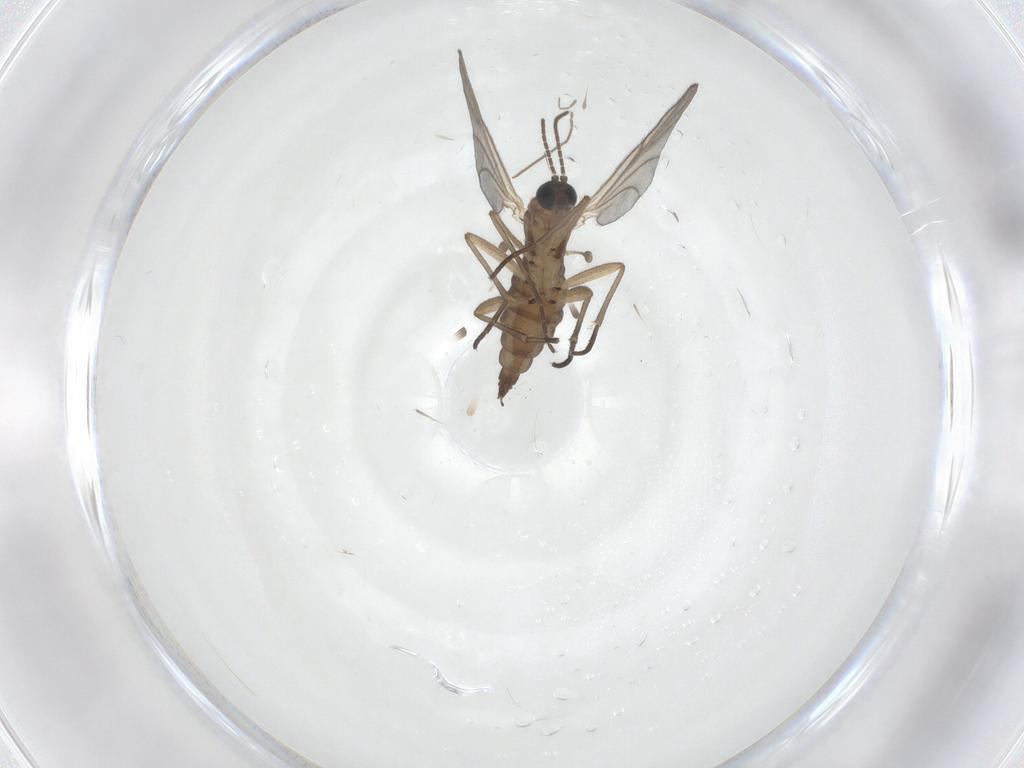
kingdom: Animalia
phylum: Arthropoda
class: Insecta
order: Diptera
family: Sciaridae
